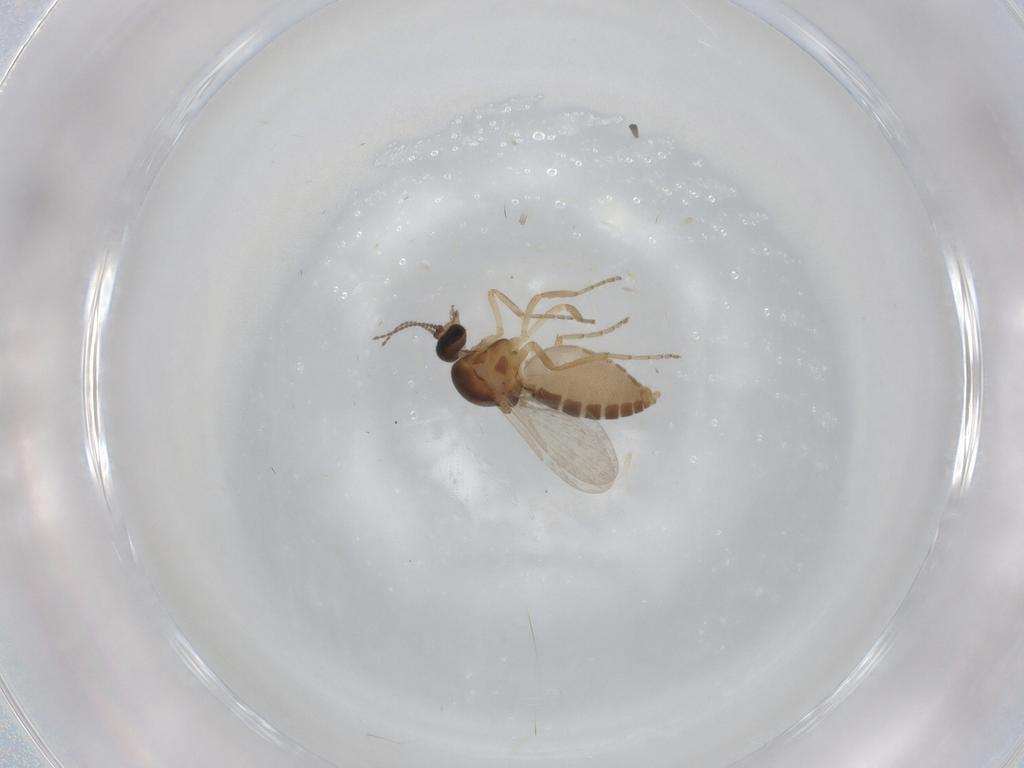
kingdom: Animalia
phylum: Arthropoda
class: Insecta
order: Diptera
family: Ceratopogonidae
